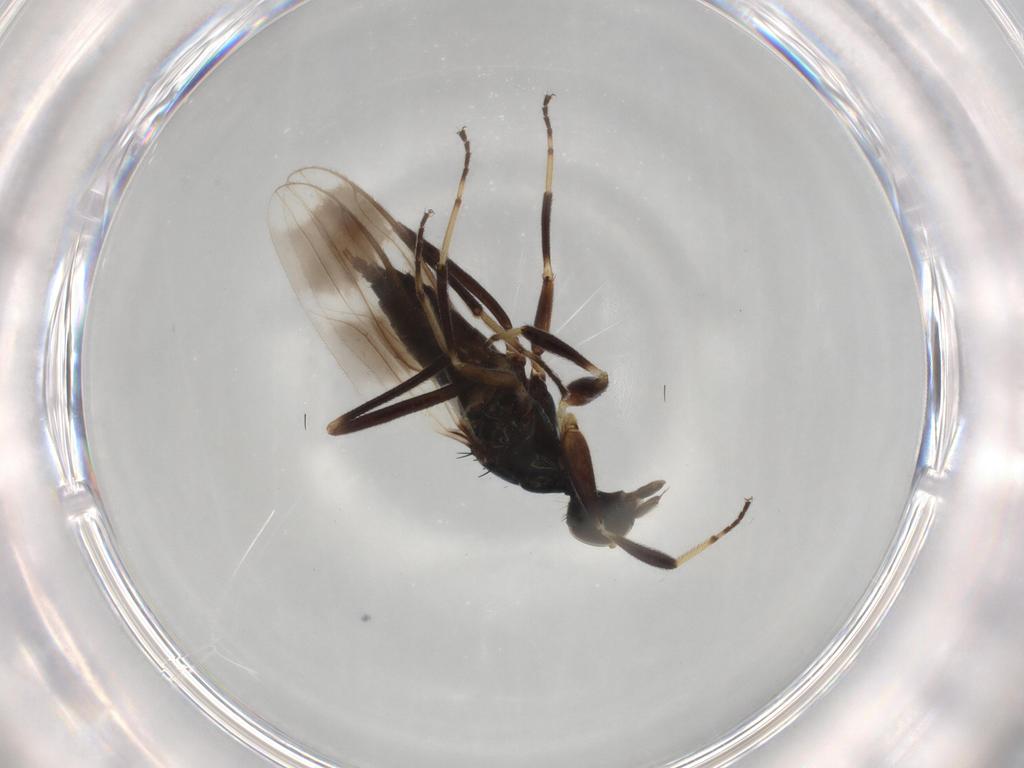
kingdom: Animalia
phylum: Arthropoda
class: Insecta
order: Diptera
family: Hybotidae
